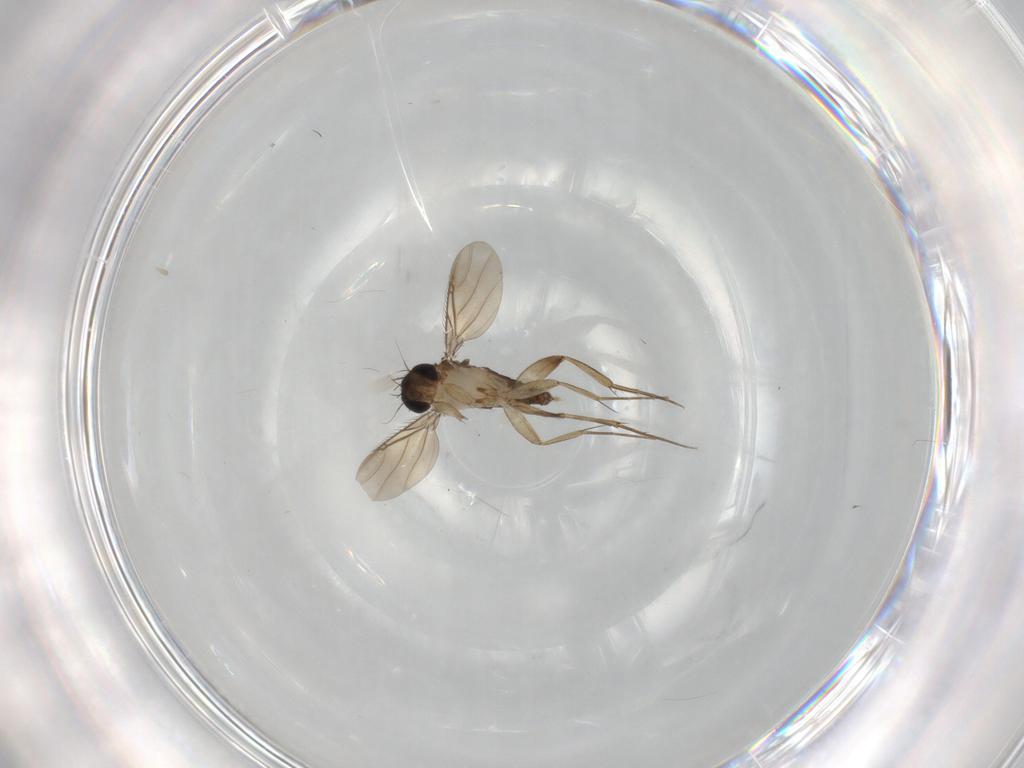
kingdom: Animalia
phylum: Arthropoda
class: Insecta
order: Diptera
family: Phoridae
